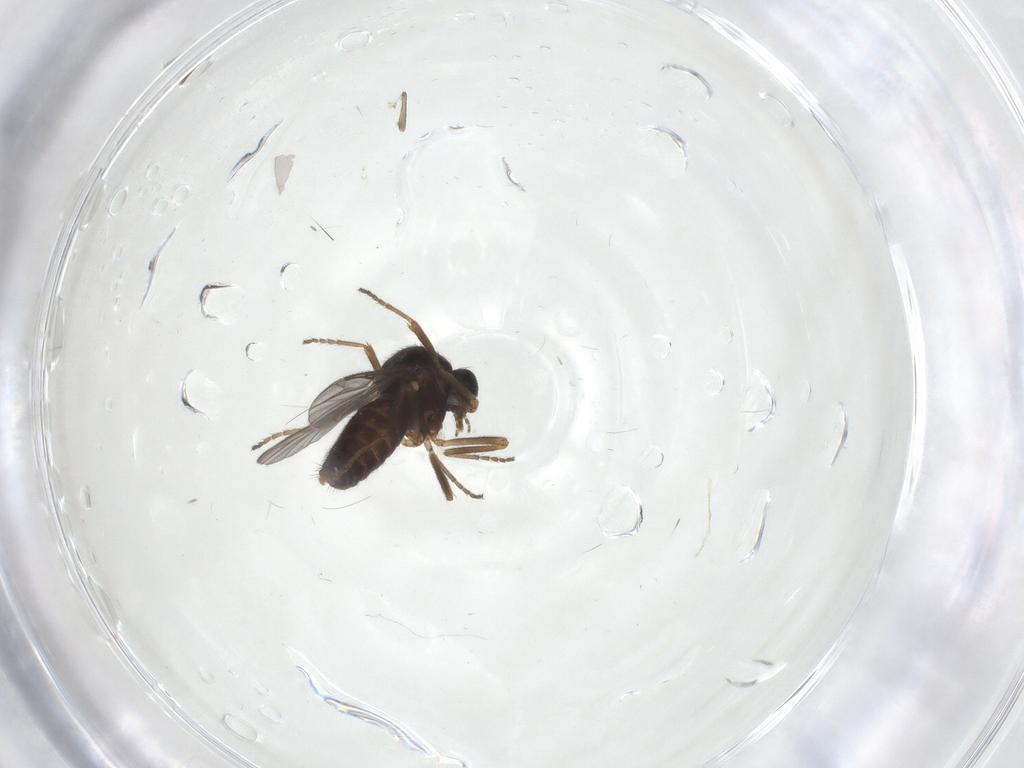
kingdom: Animalia
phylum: Arthropoda
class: Insecta
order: Diptera
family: Ceratopogonidae
